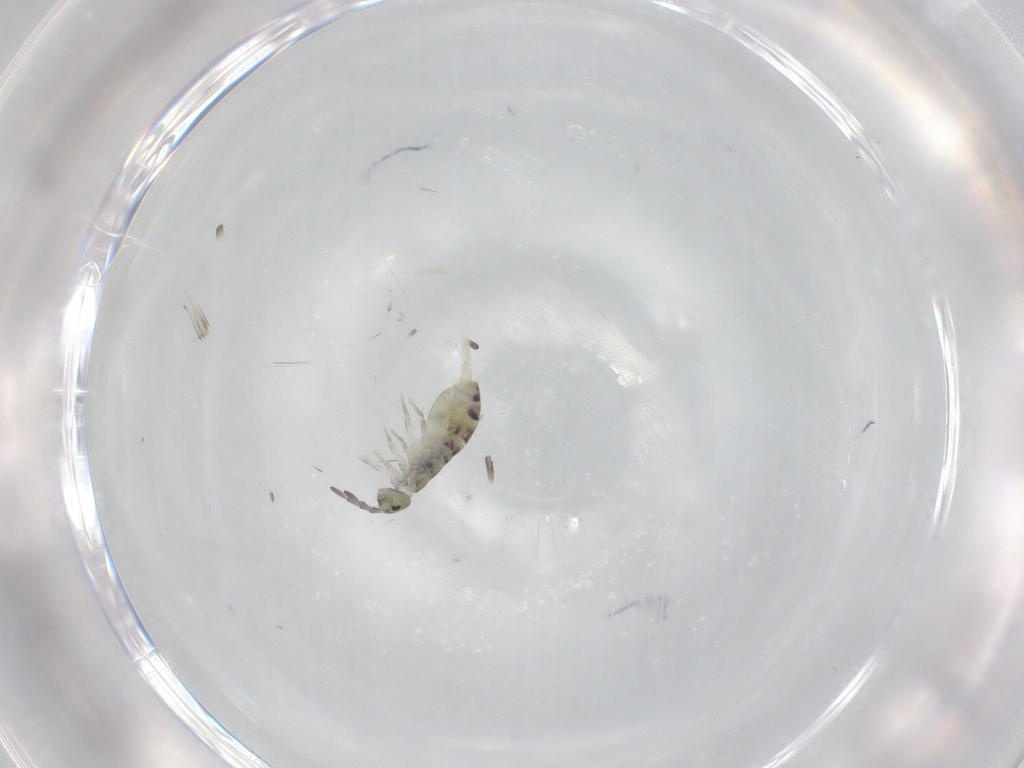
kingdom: Animalia
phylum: Arthropoda
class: Collembola
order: Entomobryomorpha
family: Isotomidae
